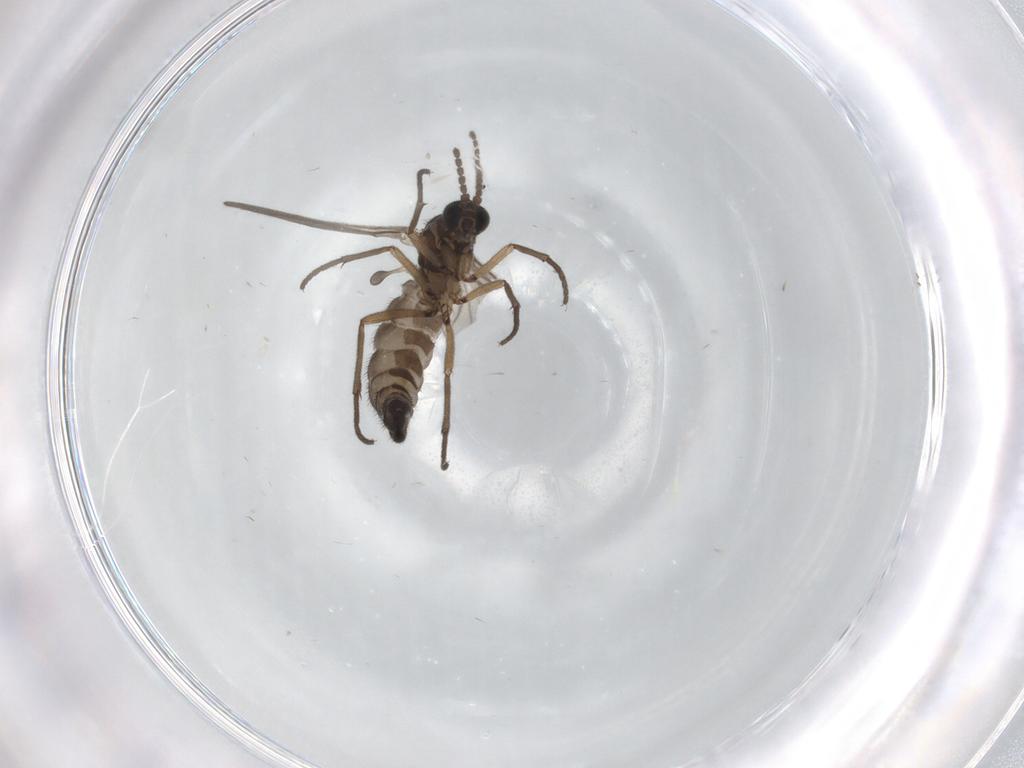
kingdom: Animalia
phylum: Arthropoda
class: Insecta
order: Diptera
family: Sciaridae
